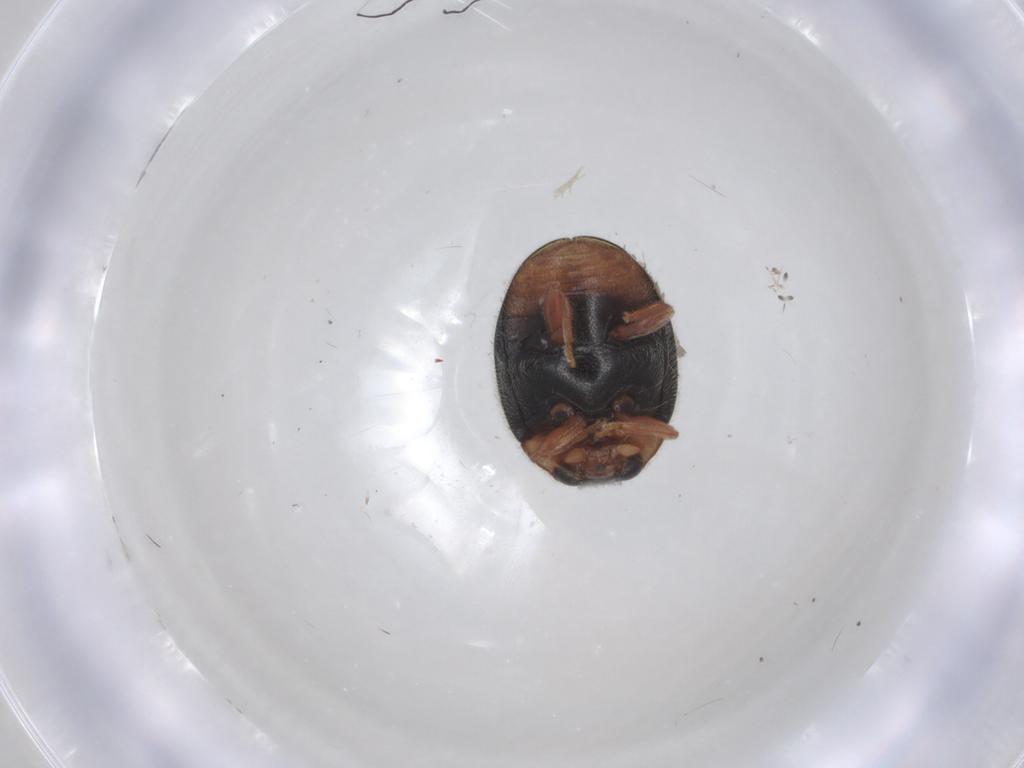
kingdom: Animalia
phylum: Arthropoda
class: Insecta
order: Coleoptera
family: Coccinellidae
